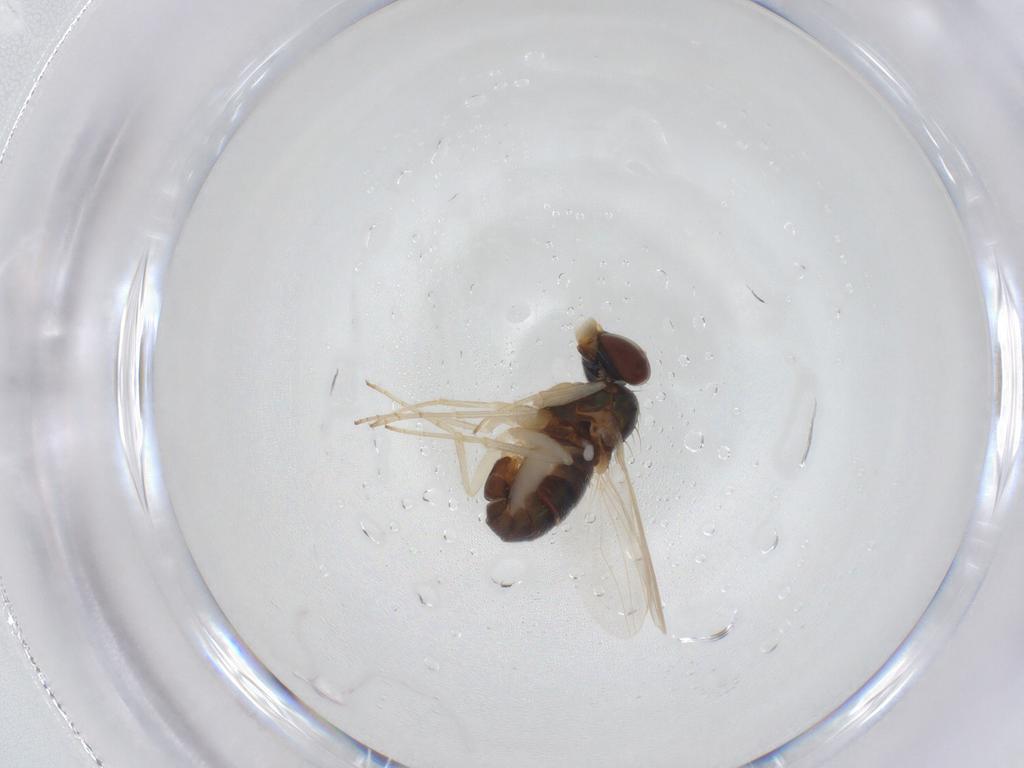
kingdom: Animalia
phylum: Arthropoda
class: Insecta
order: Diptera
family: Dolichopodidae
